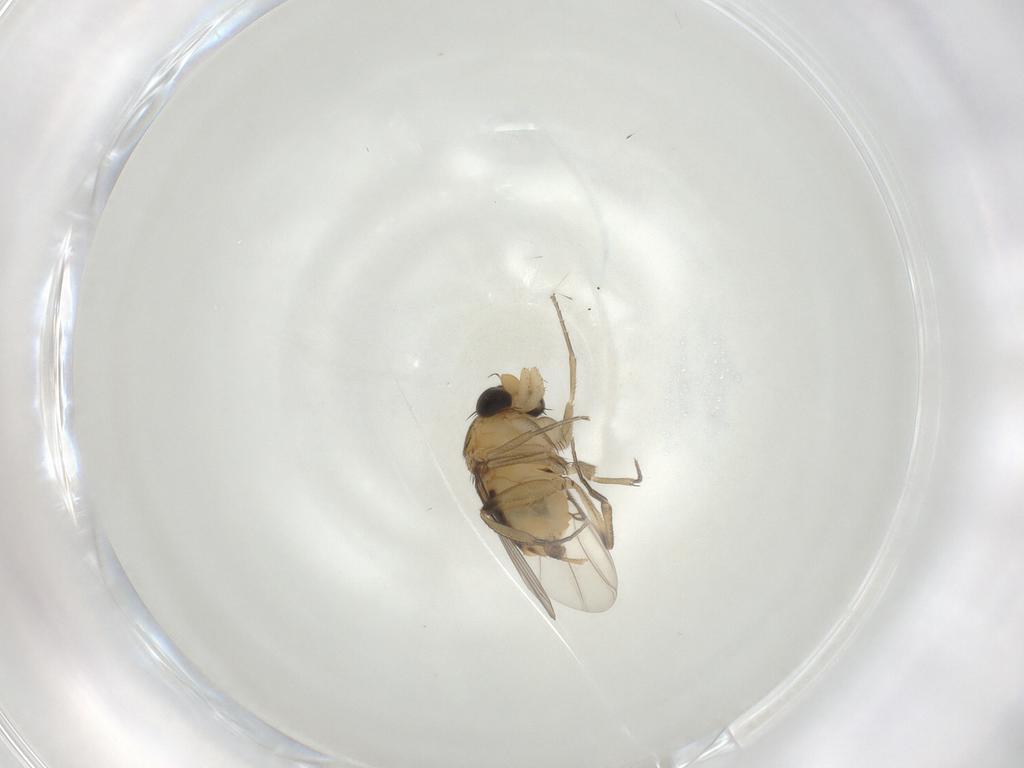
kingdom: Animalia
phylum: Arthropoda
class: Insecta
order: Diptera
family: Phoridae
